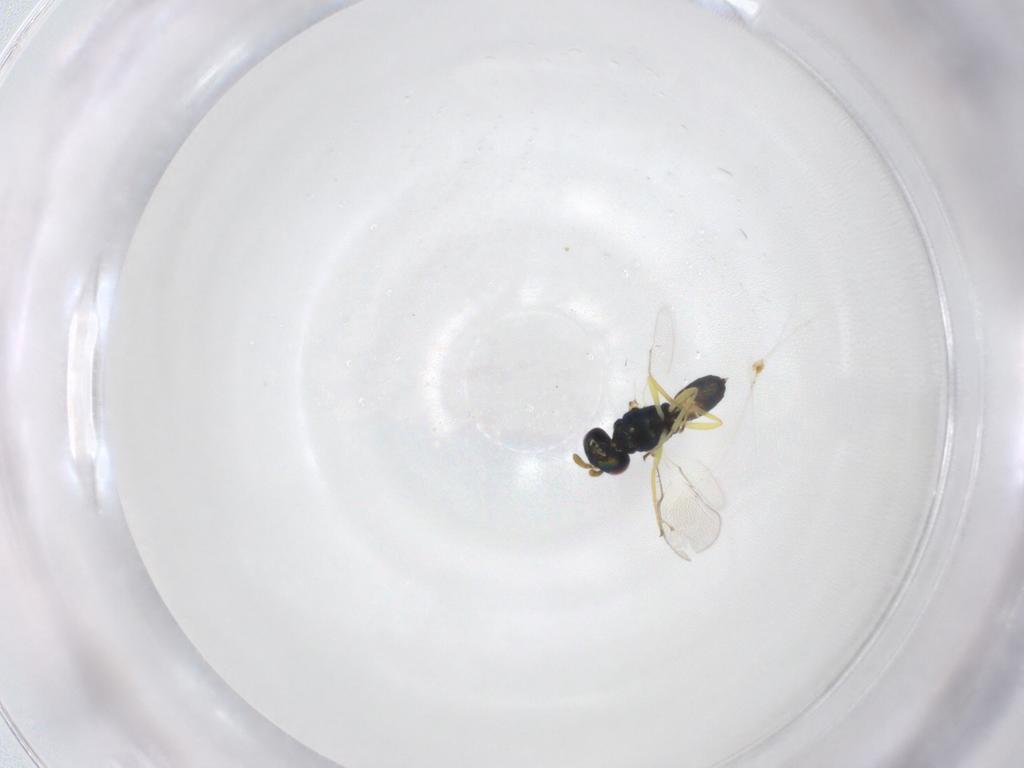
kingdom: Animalia
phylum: Arthropoda
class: Insecta
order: Hymenoptera
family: Pteromalidae
